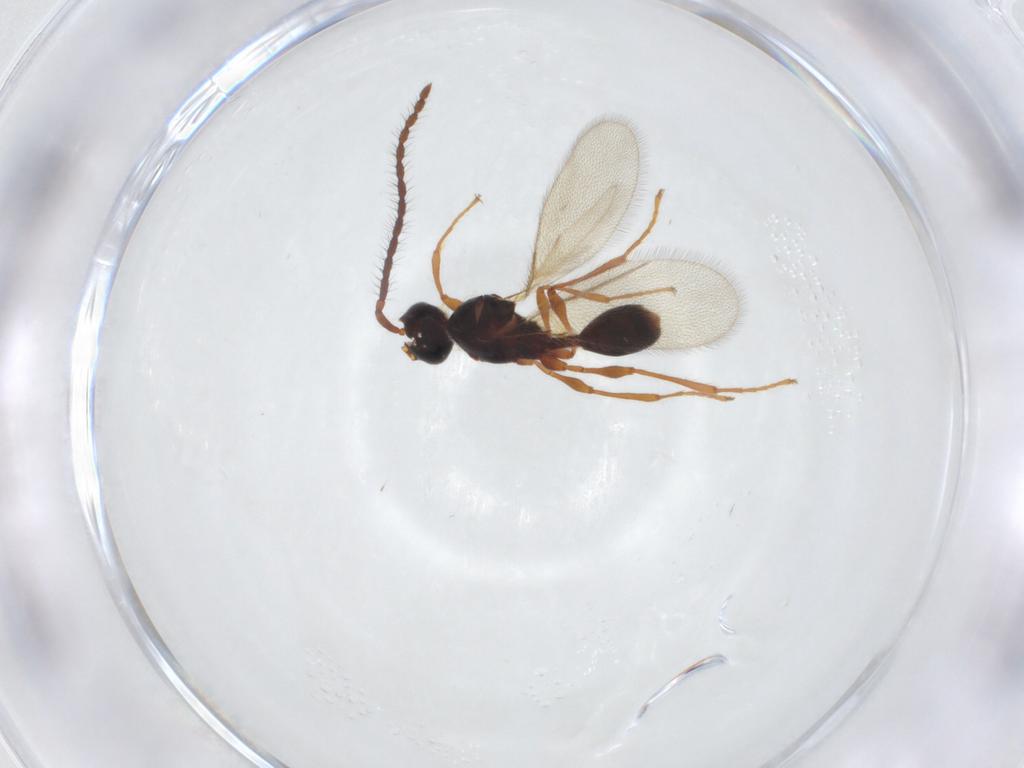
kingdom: Animalia
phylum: Arthropoda
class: Insecta
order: Hymenoptera
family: Diapriidae
